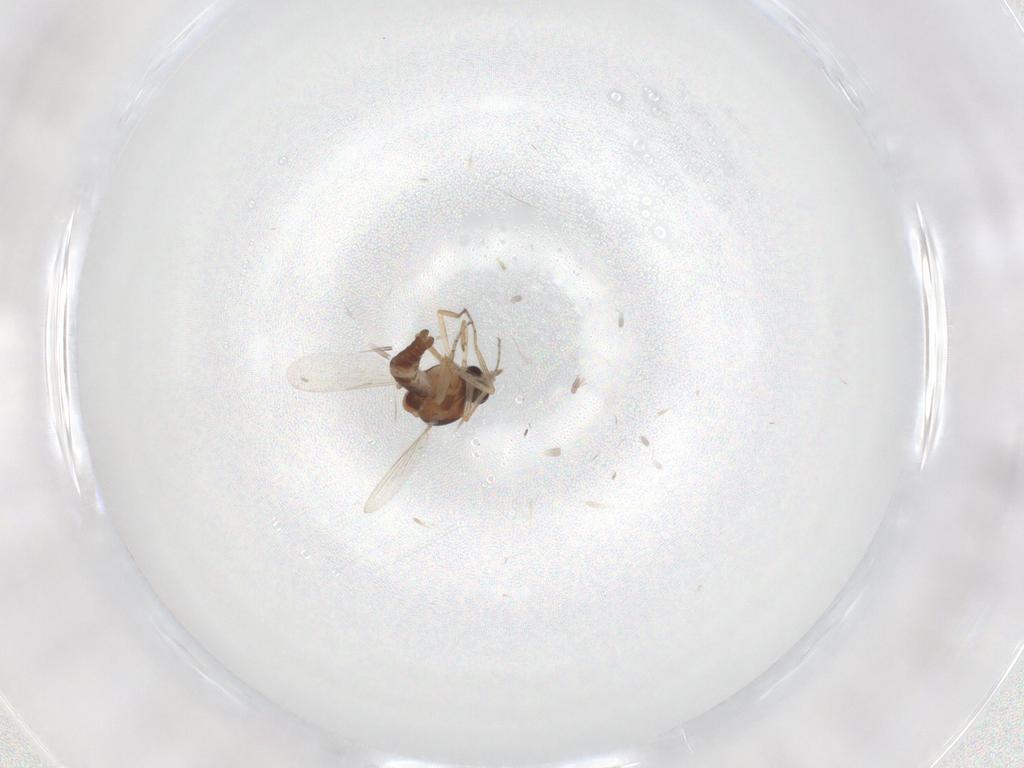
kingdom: Animalia
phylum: Arthropoda
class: Insecta
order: Diptera
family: Ceratopogonidae
